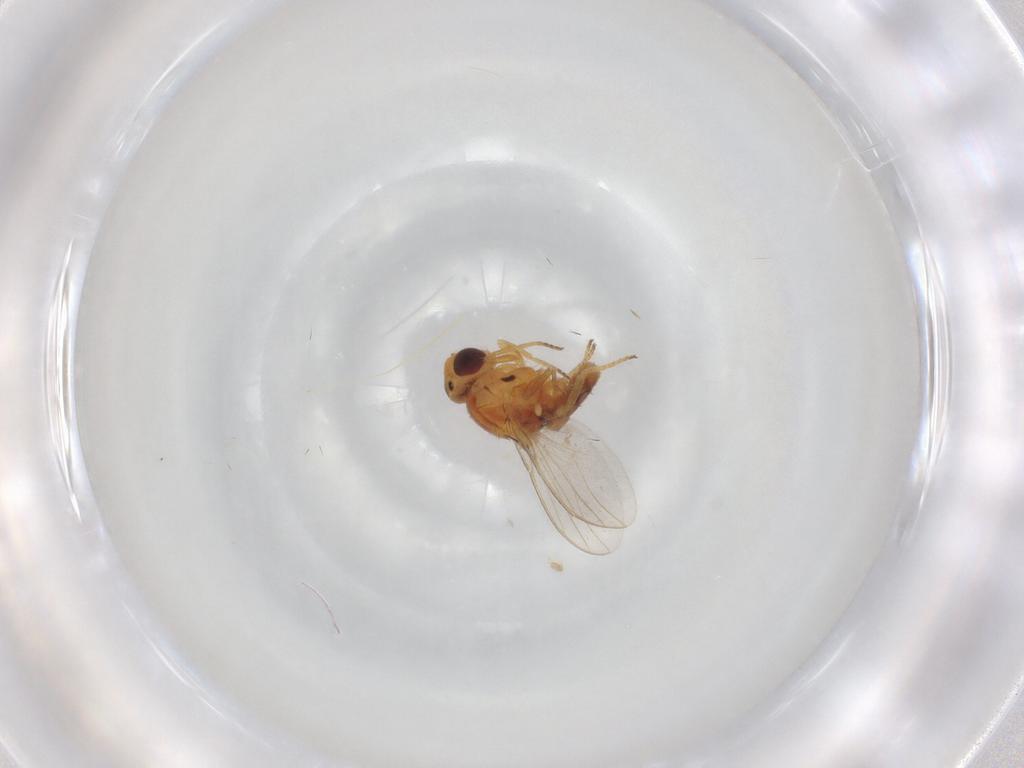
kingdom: Animalia
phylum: Arthropoda
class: Insecta
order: Diptera
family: Chloropidae
